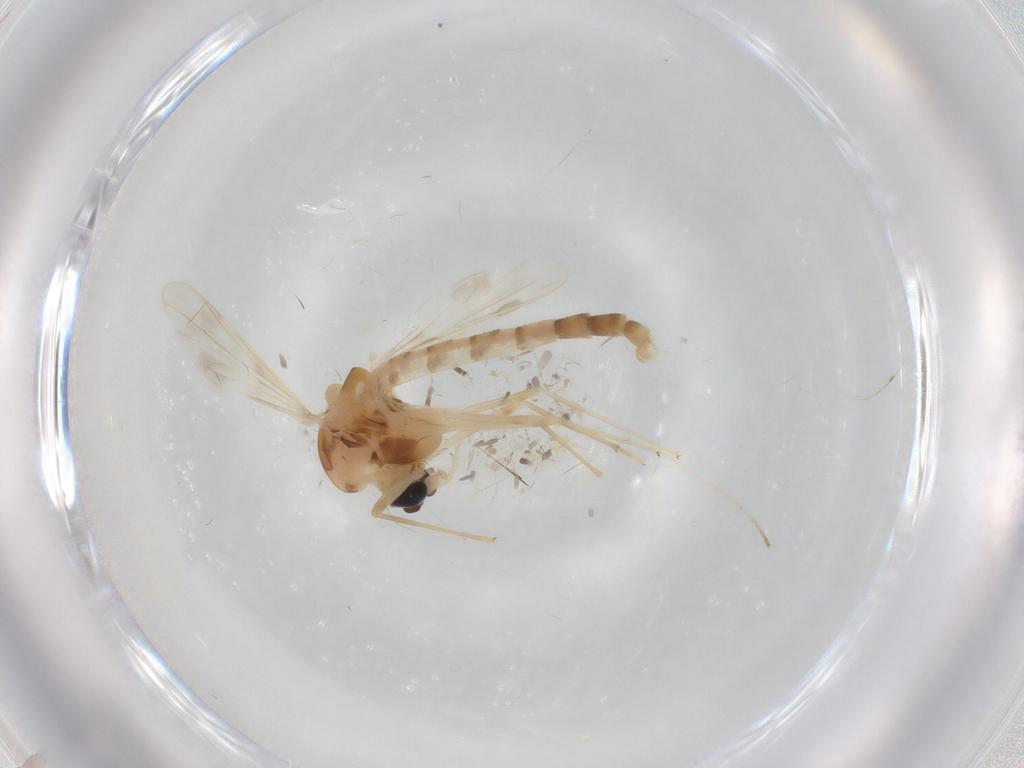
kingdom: Animalia
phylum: Arthropoda
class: Insecta
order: Diptera
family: Chironomidae
